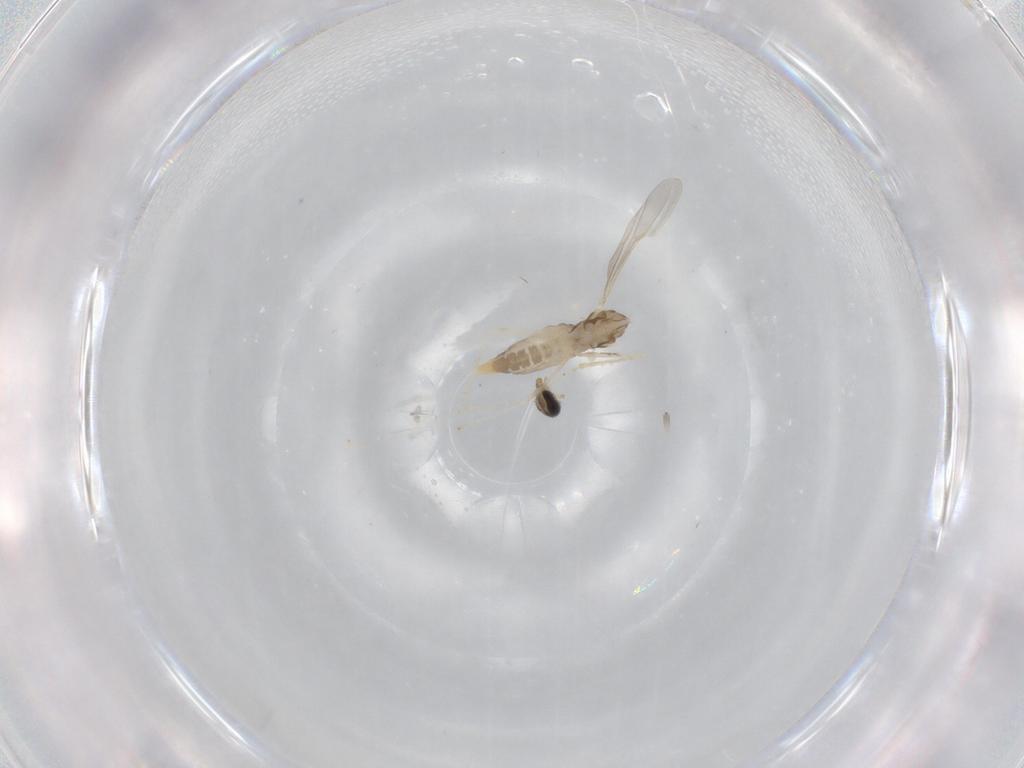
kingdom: Animalia
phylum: Arthropoda
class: Insecta
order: Diptera
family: Cecidomyiidae
